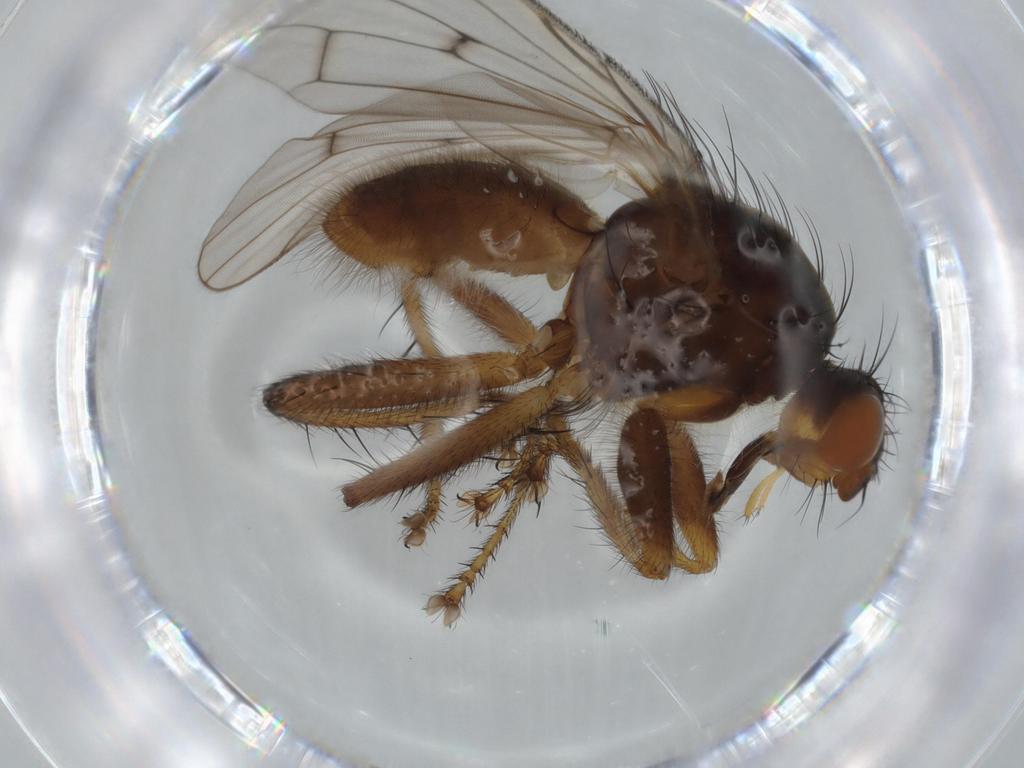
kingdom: Animalia
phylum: Arthropoda
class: Insecta
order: Diptera
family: Scathophagidae
